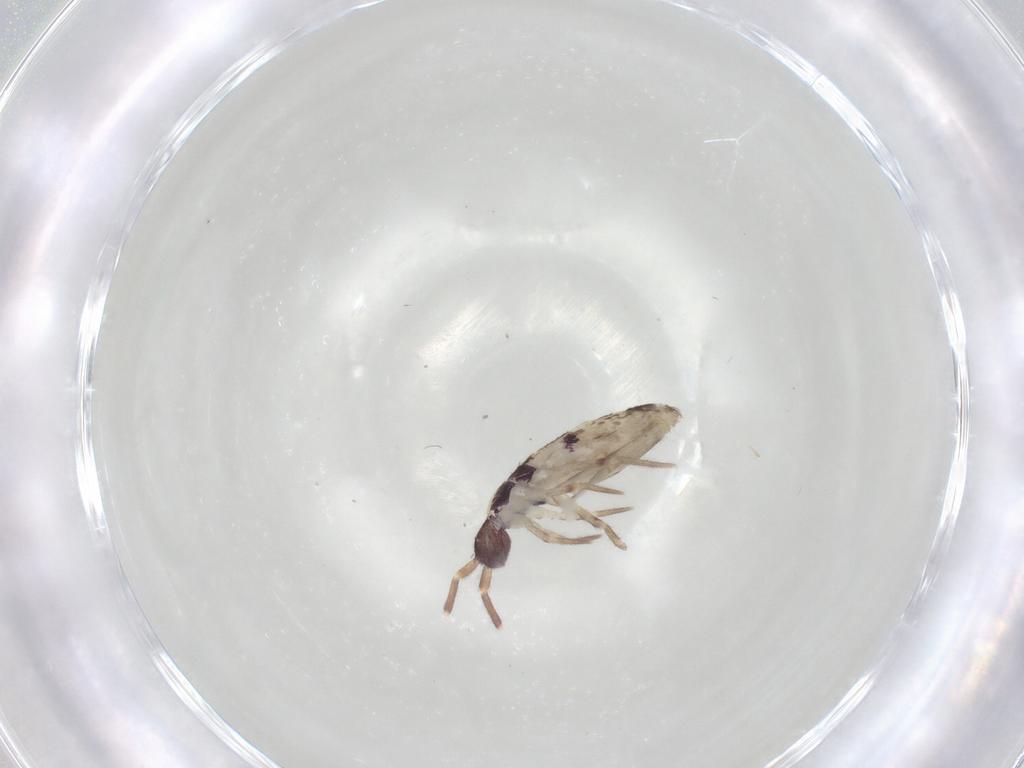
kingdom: Animalia
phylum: Arthropoda
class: Collembola
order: Entomobryomorpha
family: Entomobryidae
